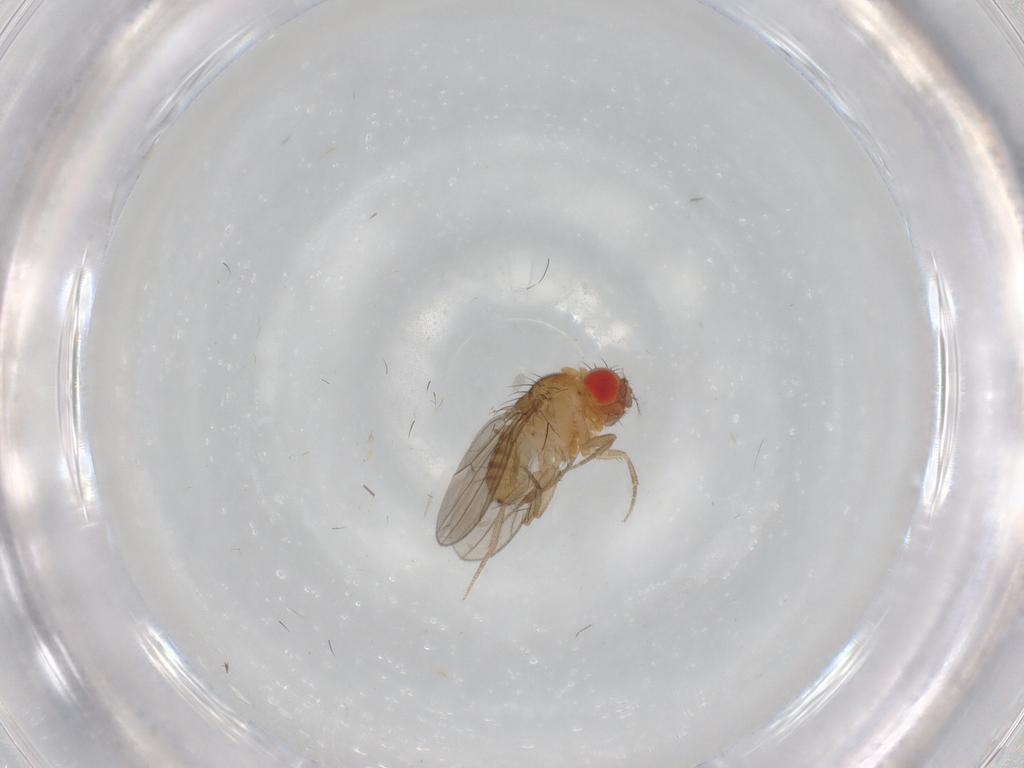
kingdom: Animalia
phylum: Arthropoda
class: Insecta
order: Diptera
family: Drosophilidae
